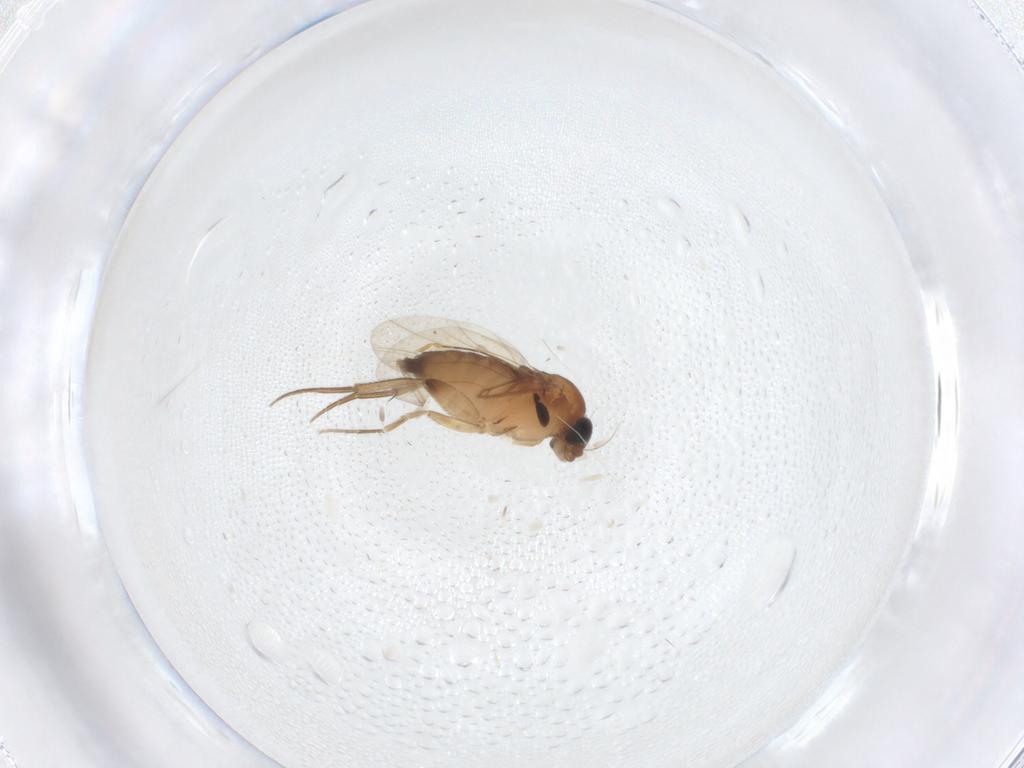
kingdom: Animalia
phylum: Arthropoda
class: Insecta
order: Diptera
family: Phoridae
